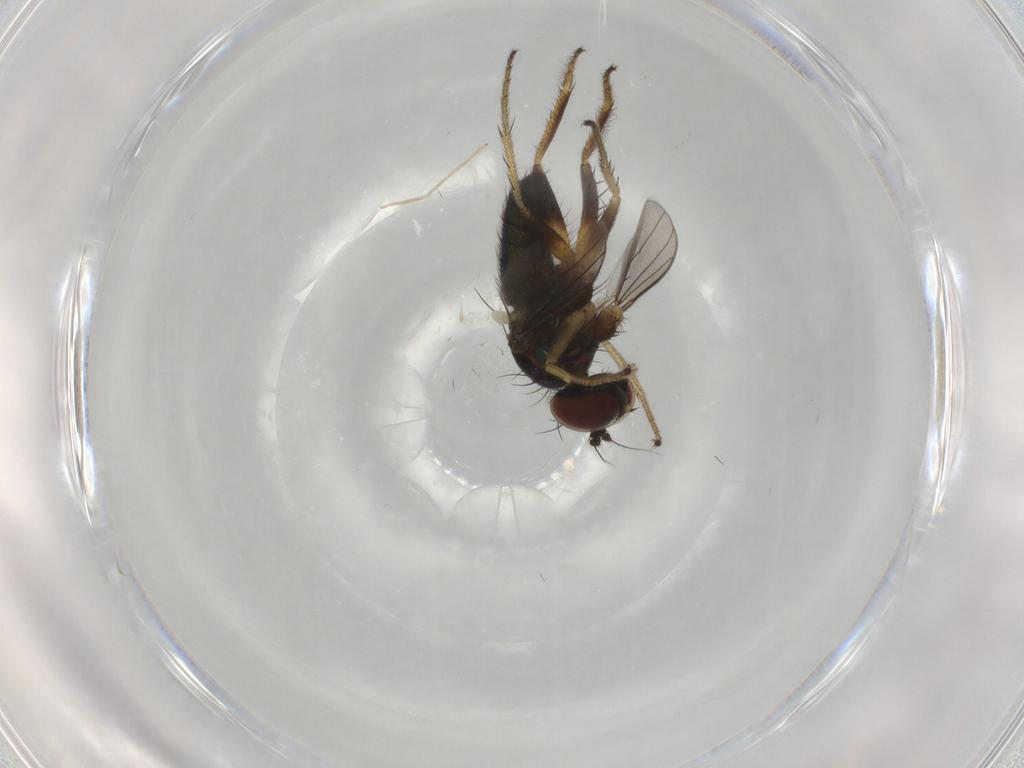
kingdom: Animalia
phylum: Arthropoda
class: Insecta
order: Diptera
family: Dolichopodidae
